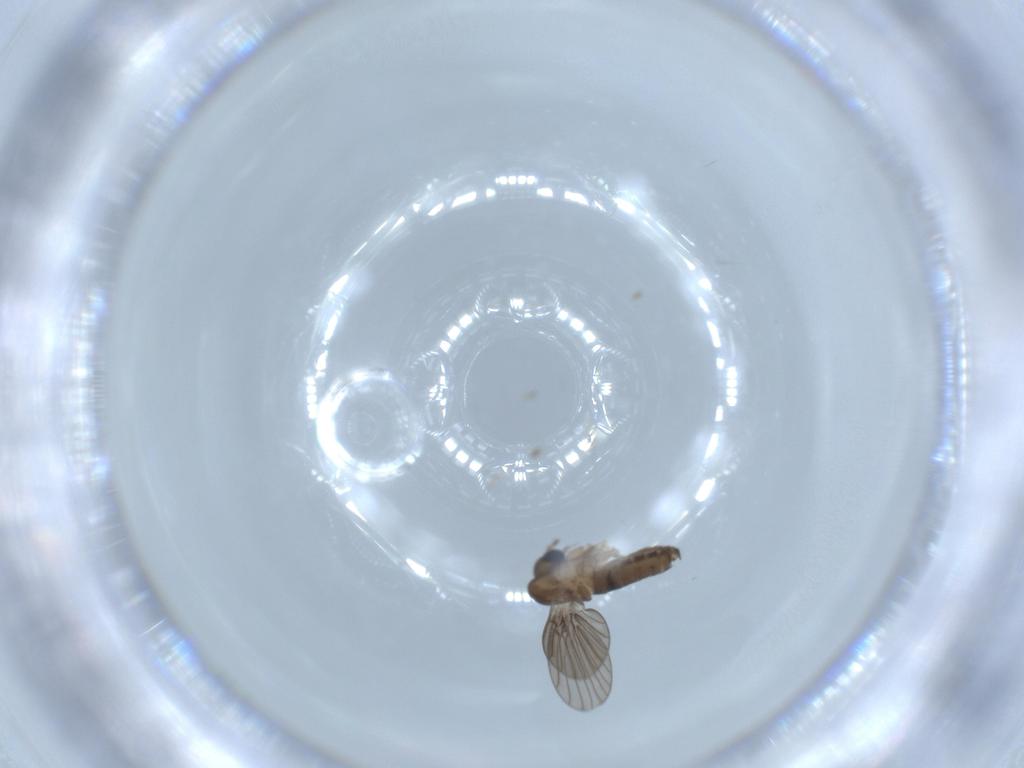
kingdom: Animalia
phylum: Arthropoda
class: Insecta
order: Diptera
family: Psychodidae
